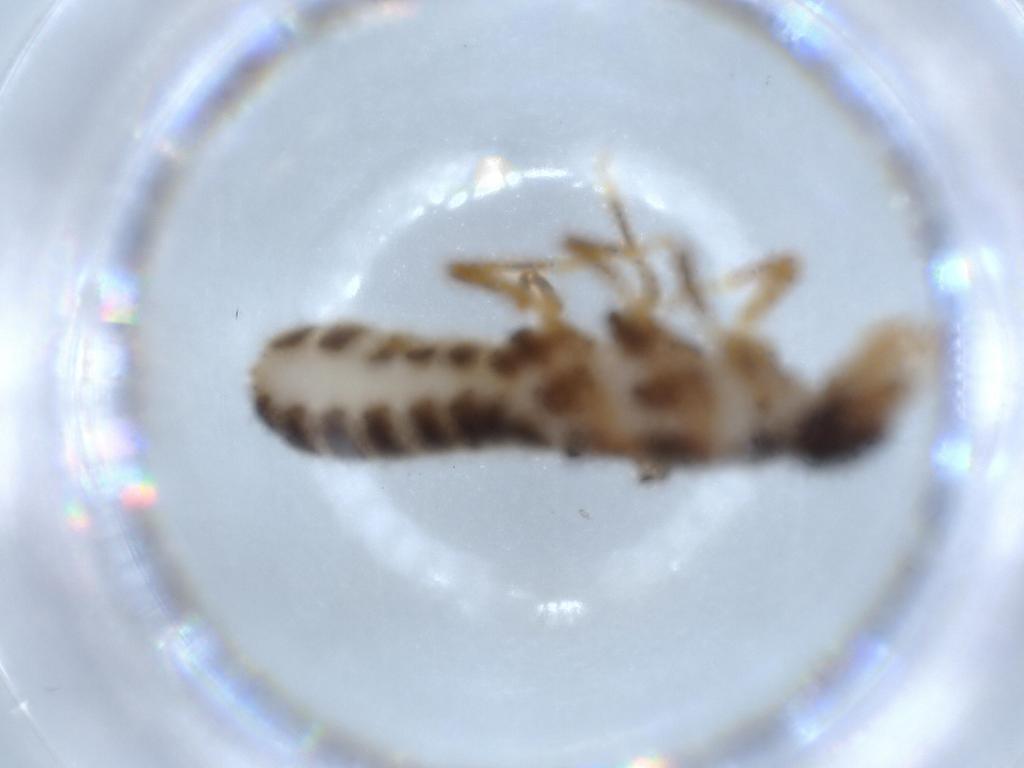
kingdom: Animalia
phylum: Arthropoda
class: Insecta
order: Blattodea
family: Termitidae
